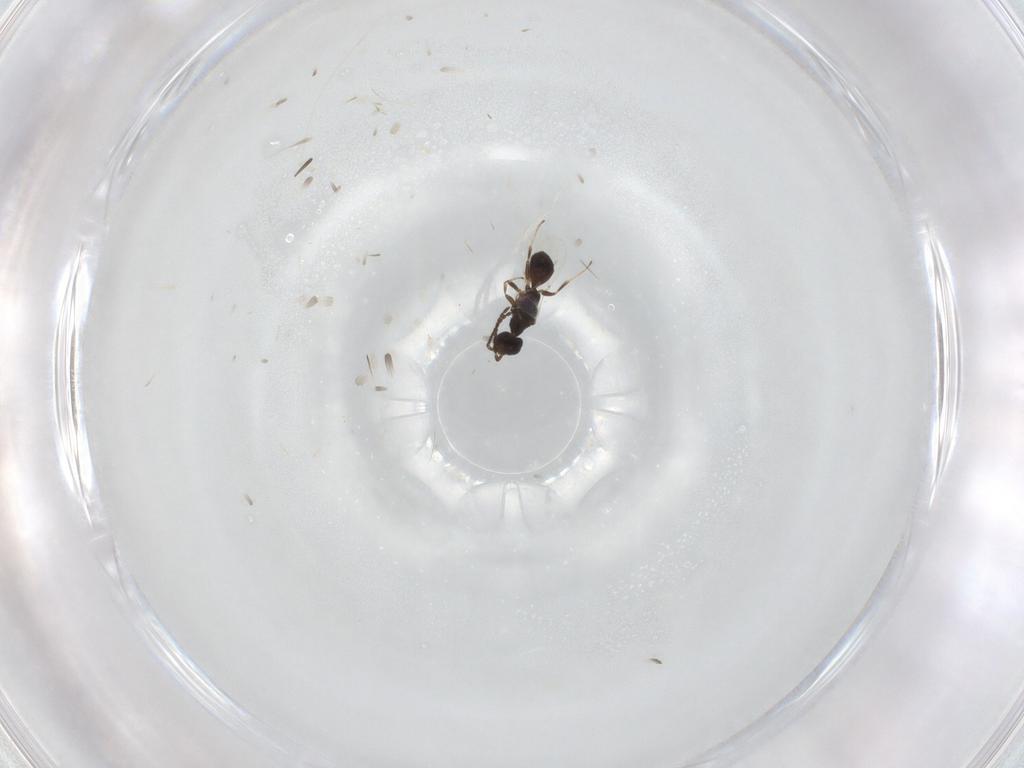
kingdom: Animalia
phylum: Arthropoda
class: Insecta
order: Hymenoptera
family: Bethylidae
